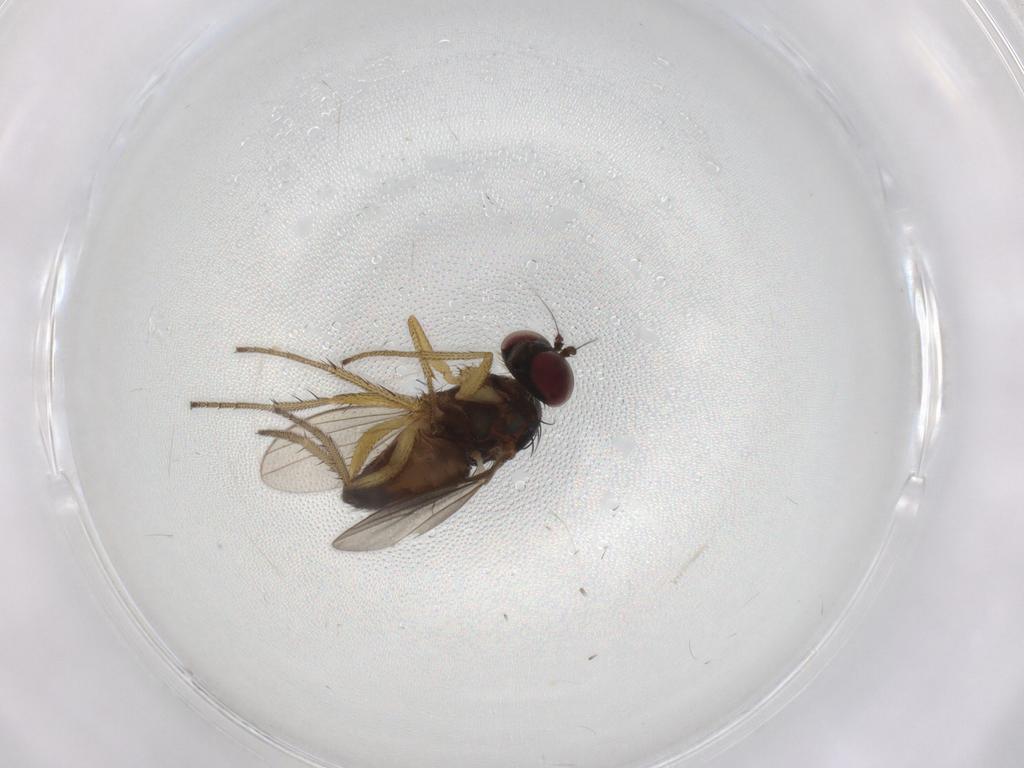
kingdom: Animalia
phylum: Arthropoda
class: Insecta
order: Diptera
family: Dolichopodidae
